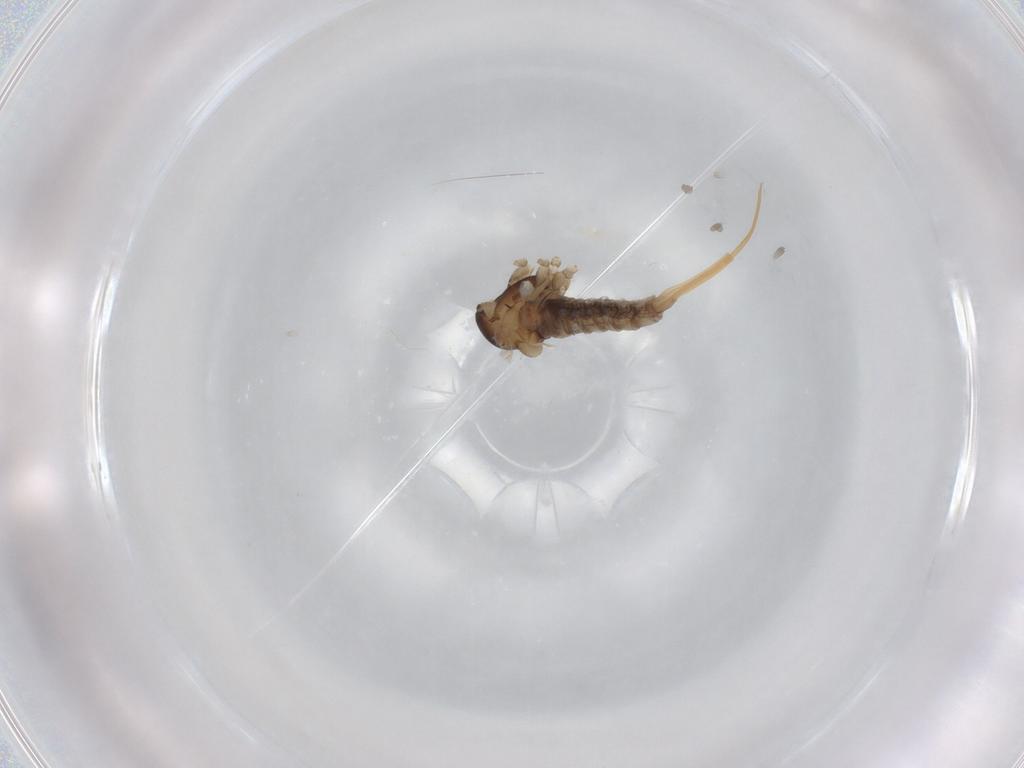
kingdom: Animalia
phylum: Arthropoda
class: Insecta
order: Diptera
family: Cecidomyiidae
